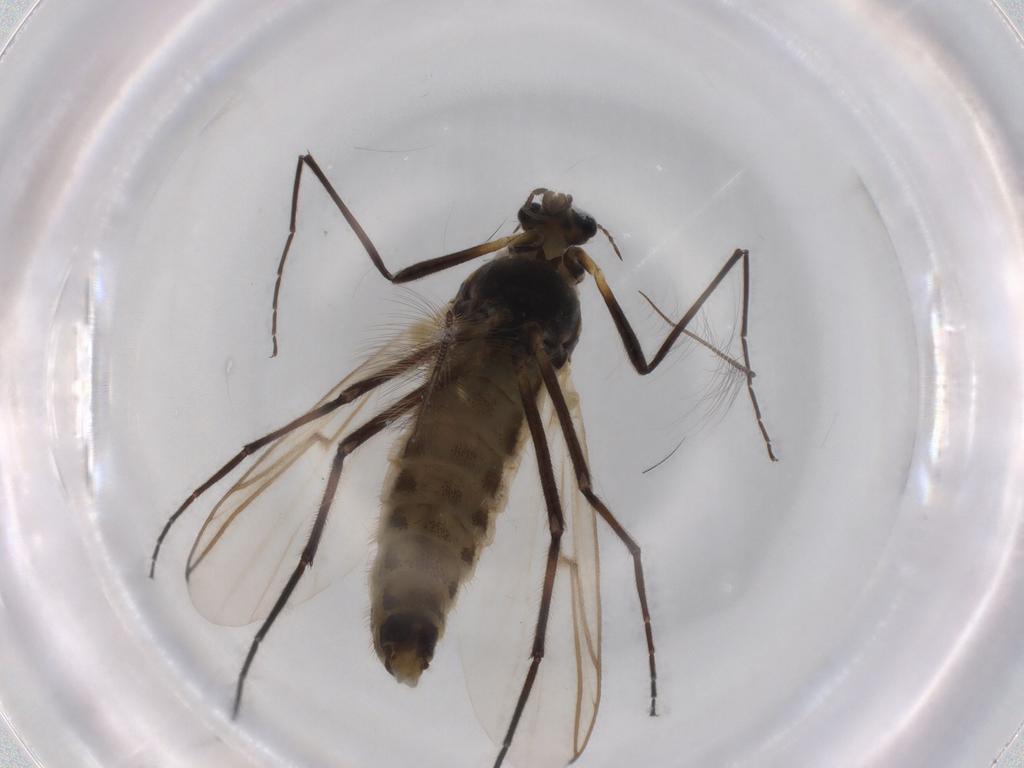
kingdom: Animalia
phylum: Arthropoda
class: Insecta
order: Diptera
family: Chironomidae
